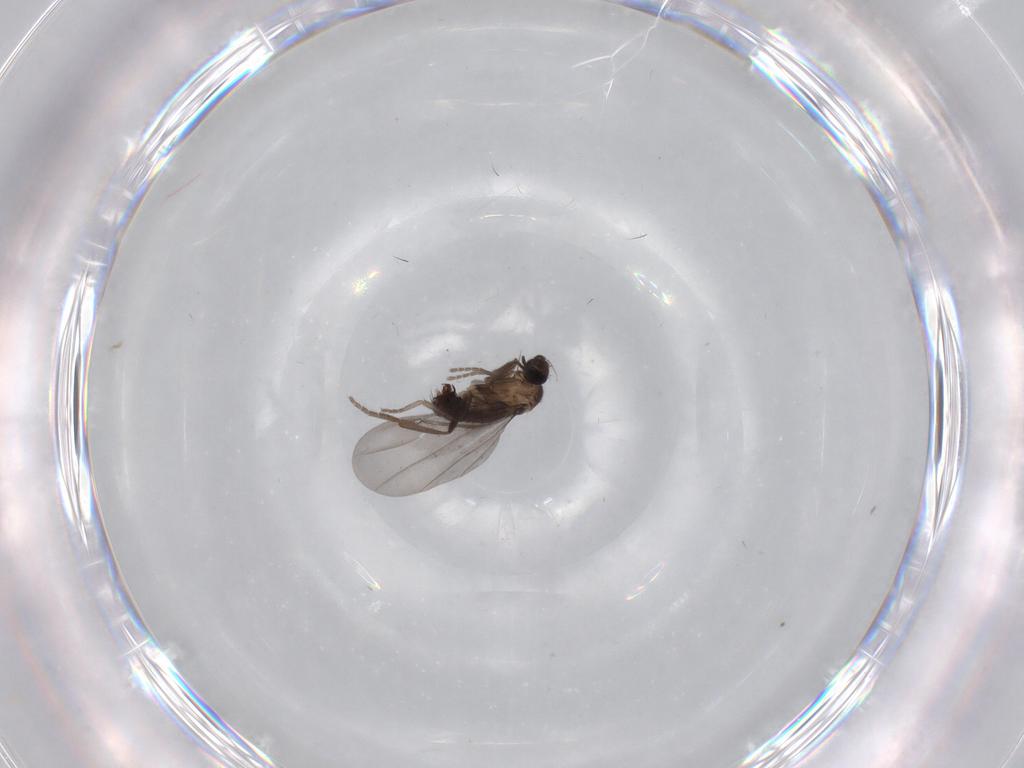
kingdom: Animalia
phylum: Arthropoda
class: Insecta
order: Diptera
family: Phoridae
